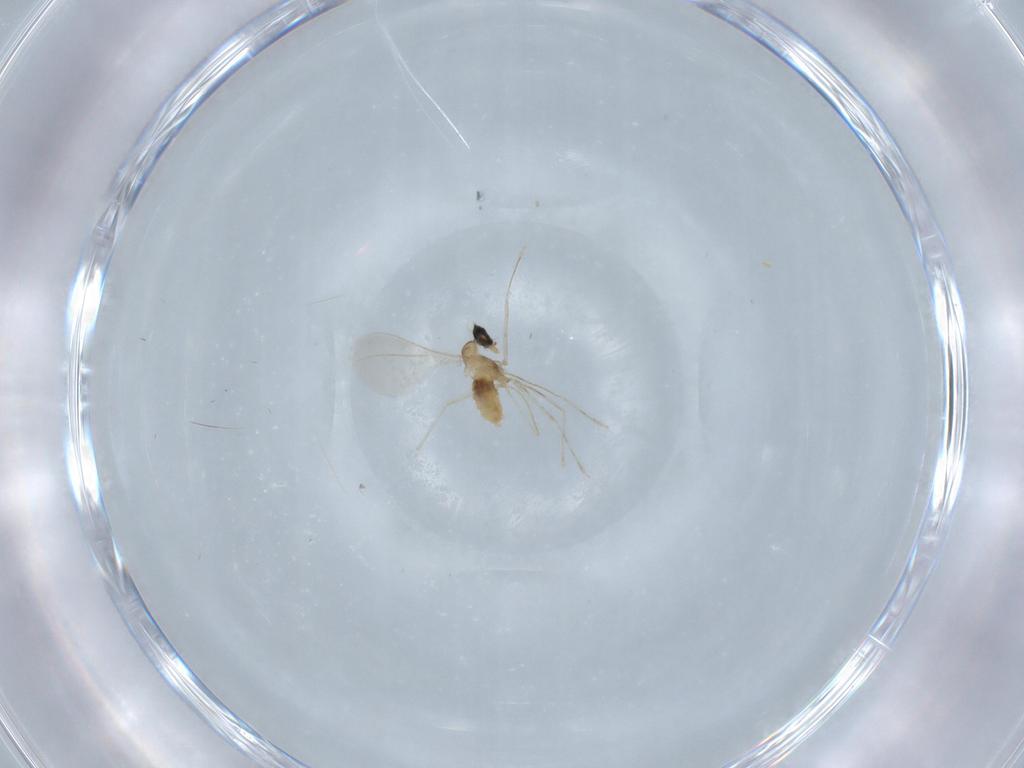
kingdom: Animalia
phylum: Arthropoda
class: Insecta
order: Diptera
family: Cecidomyiidae
